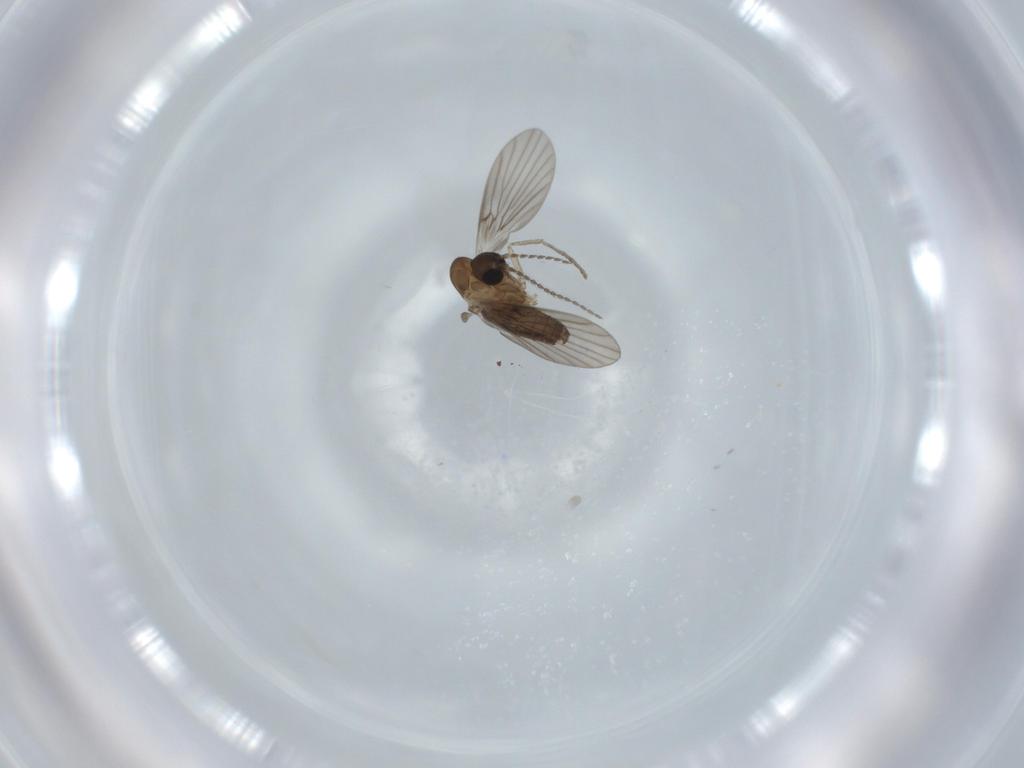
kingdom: Animalia
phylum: Arthropoda
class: Insecta
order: Diptera
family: Psychodidae
